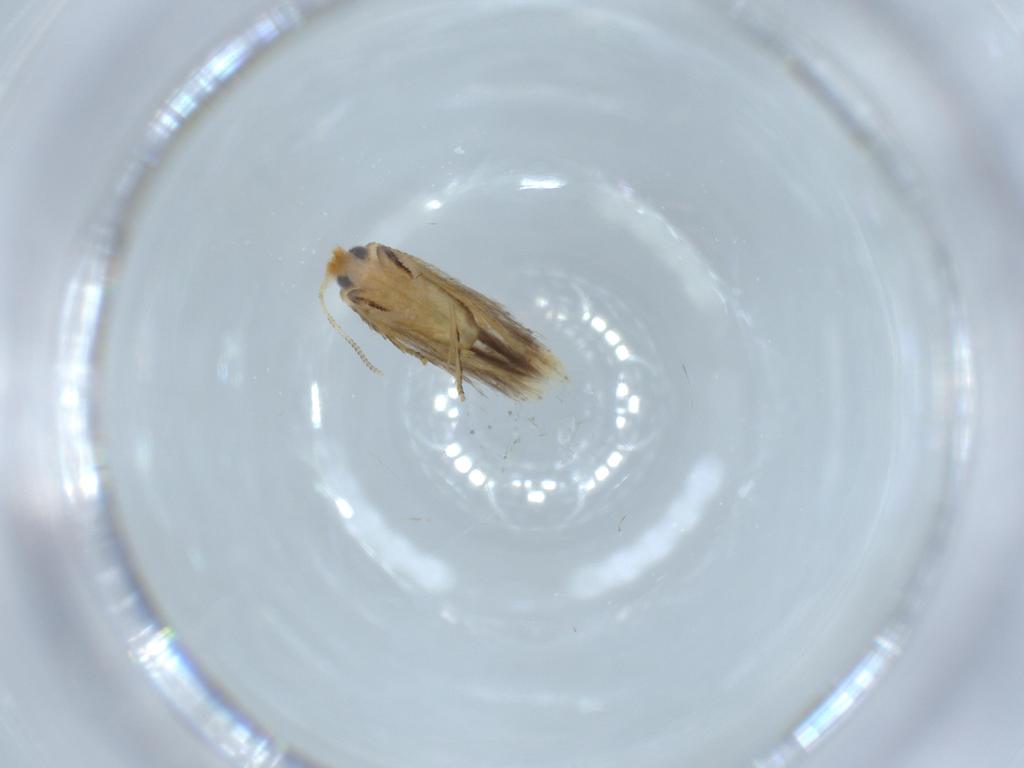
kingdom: Animalia
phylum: Arthropoda
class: Insecta
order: Lepidoptera
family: Nepticulidae
